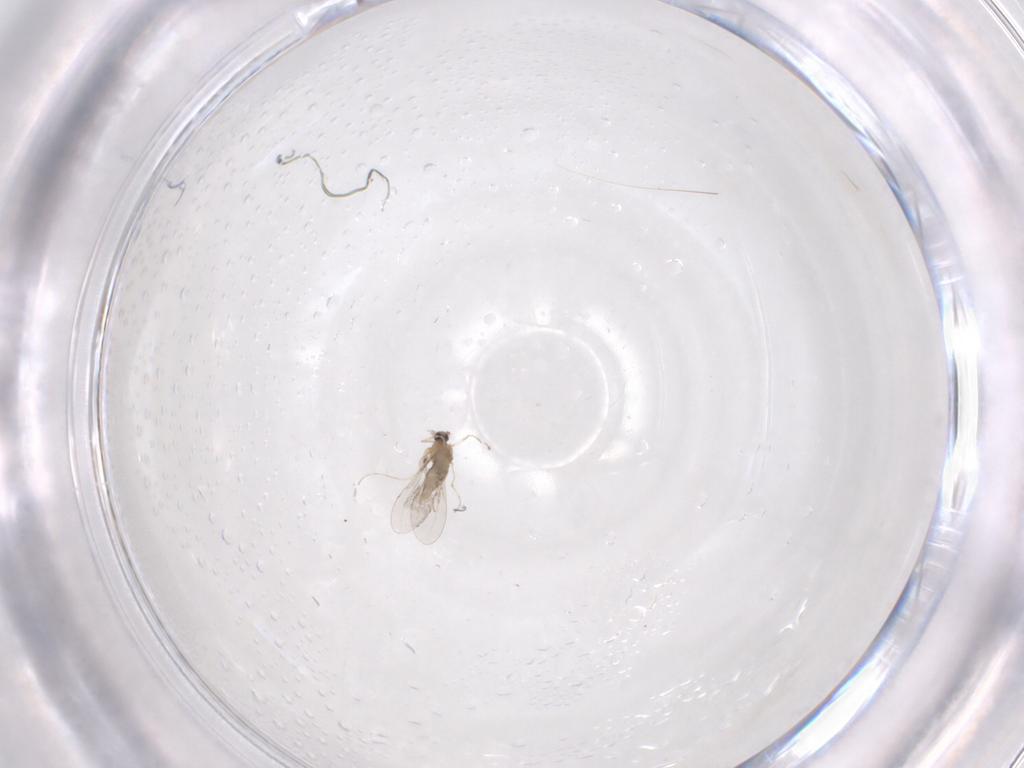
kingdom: Animalia
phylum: Arthropoda
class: Insecta
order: Diptera
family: Cecidomyiidae
